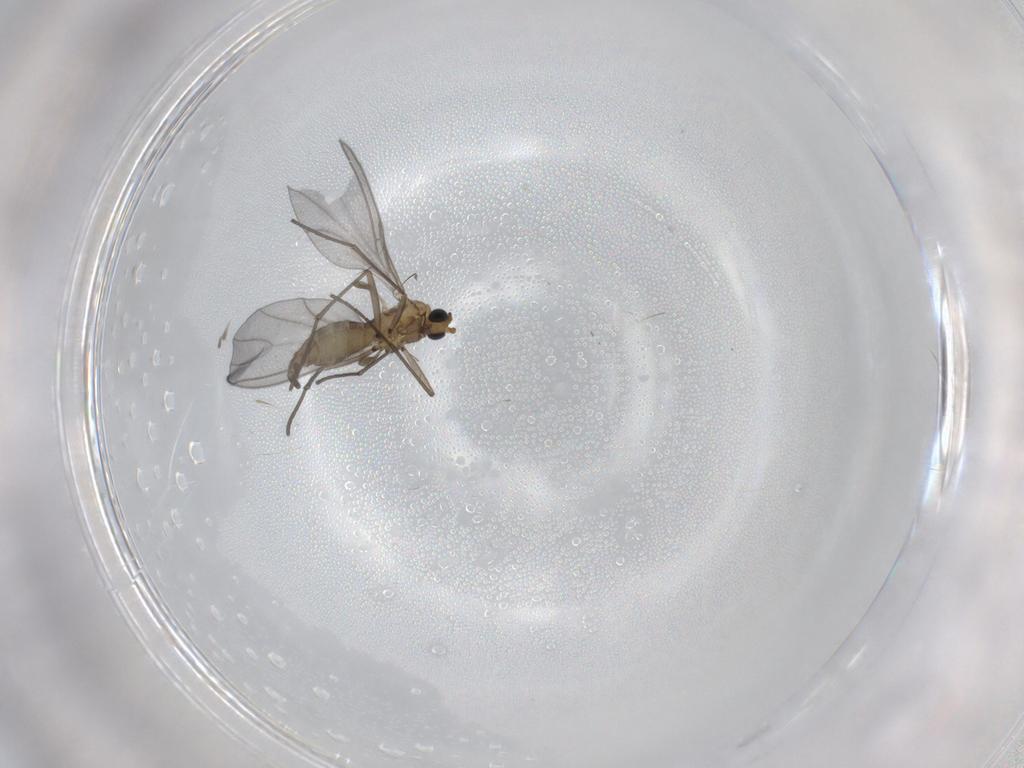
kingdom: Animalia
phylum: Arthropoda
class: Insecta
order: Diptera
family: Sciaridae
